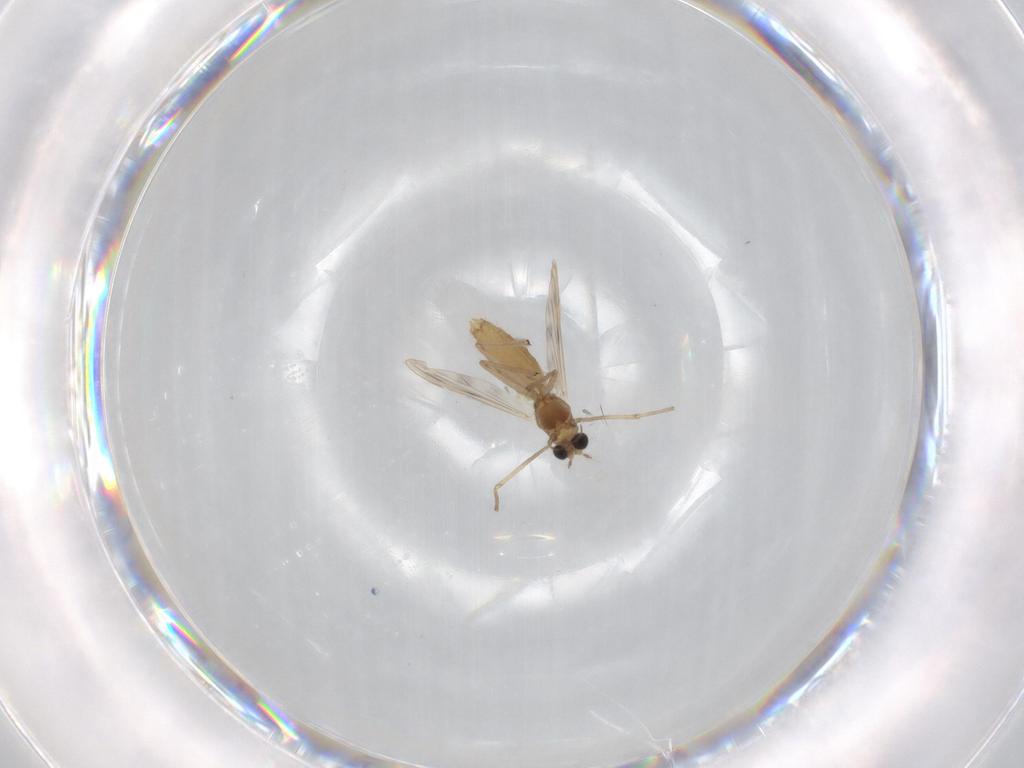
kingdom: Animalia
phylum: Arthropoda
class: Insecta
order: Diptera
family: Chironomidae
